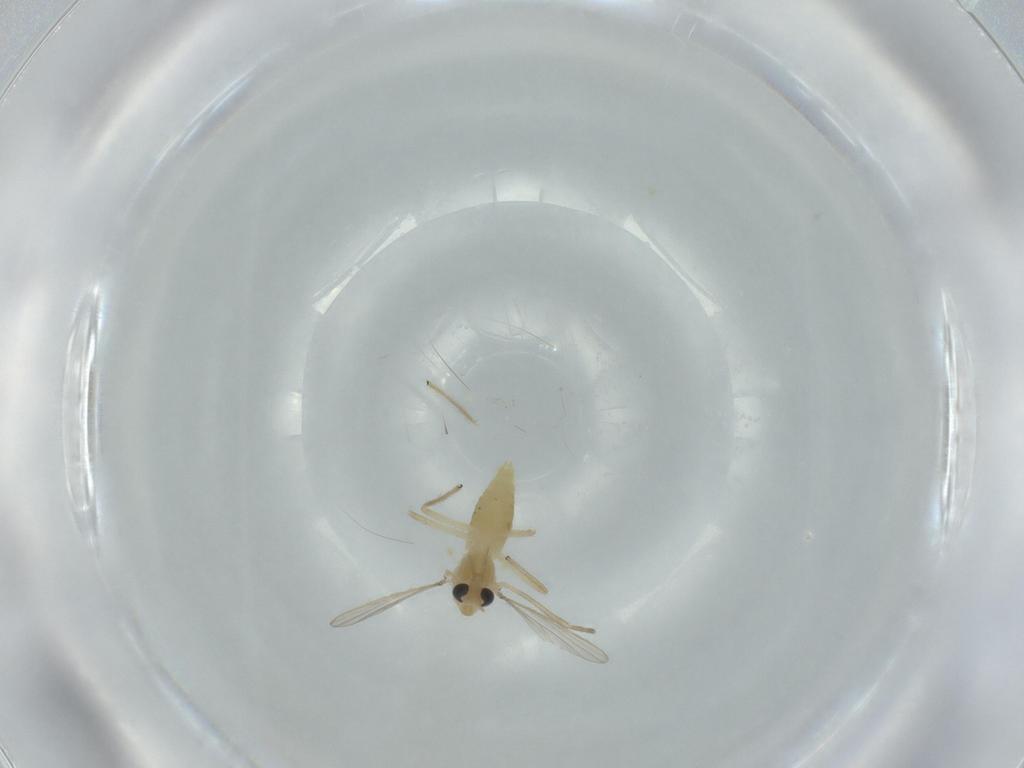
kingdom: Animalia
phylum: Arthropoda
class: Insecta
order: Diptera
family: Chironomidae
